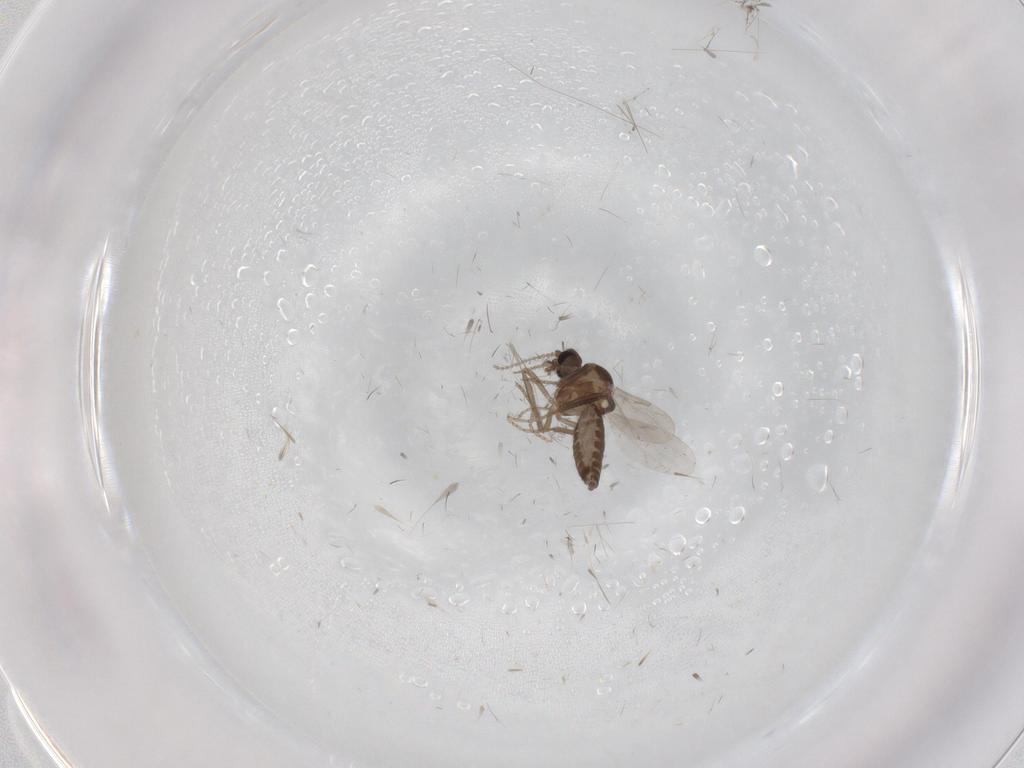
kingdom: Animalia
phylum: Arthropoda
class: Insecta
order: Diptera
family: Ceratopogonidae
